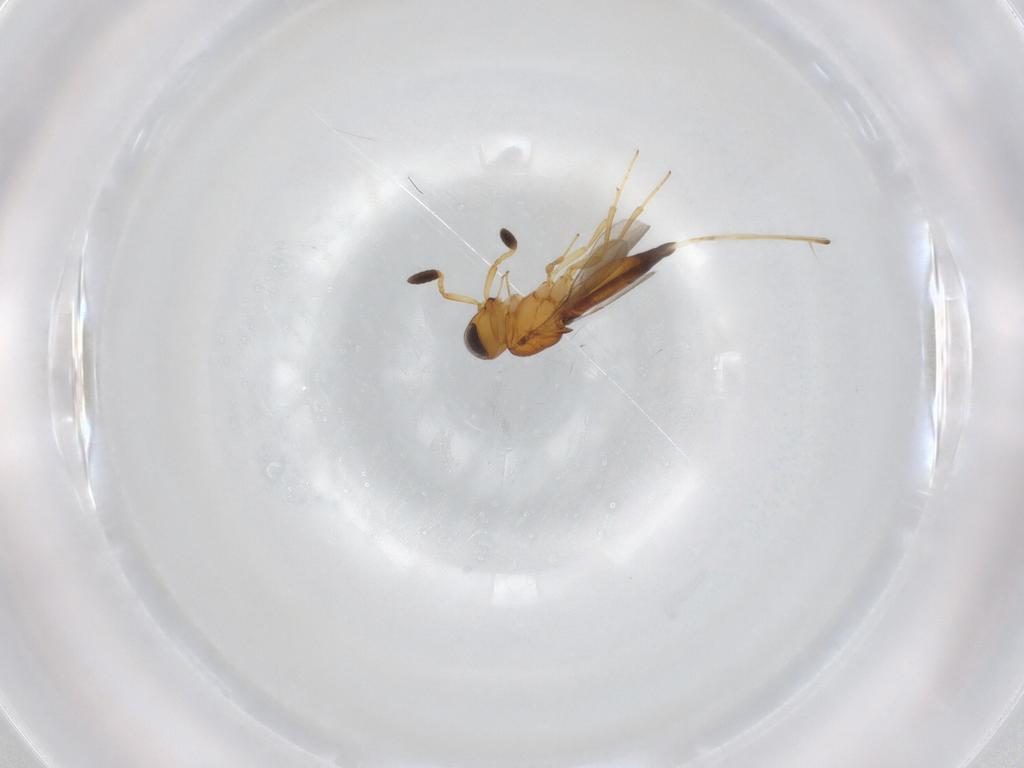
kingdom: Animalia
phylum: Arthropoda
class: Insecta
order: Hymenoptera
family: Scelionidae
